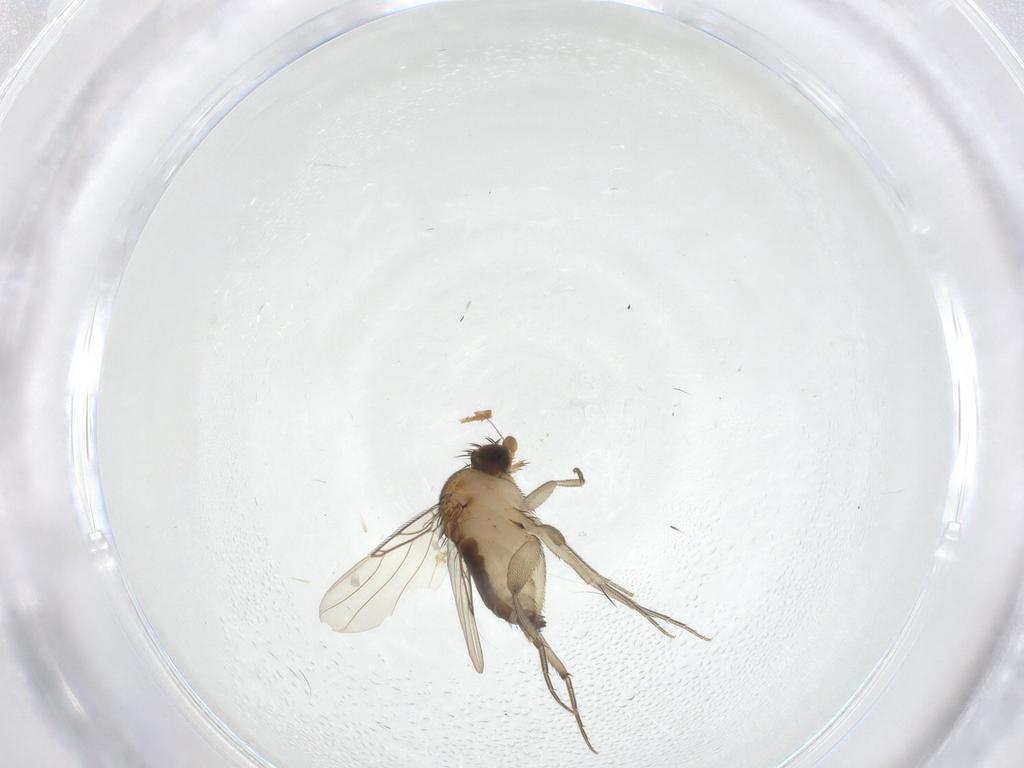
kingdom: Animalia
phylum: Arthropoda
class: Insecta
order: Diptera
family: Phoridae
